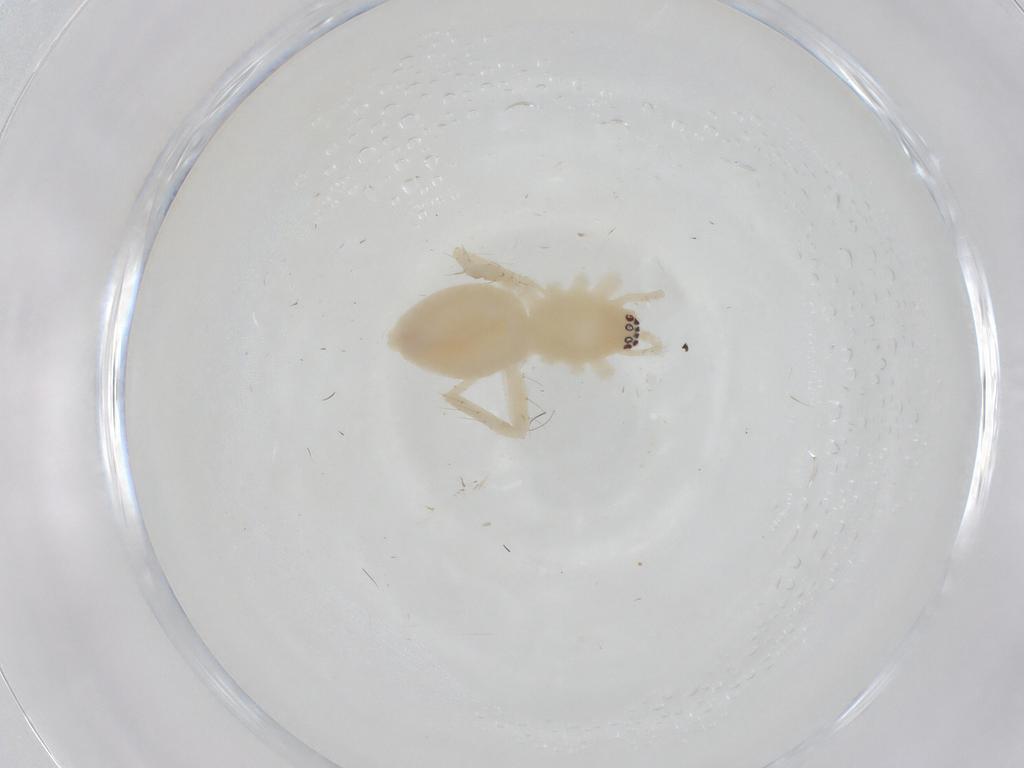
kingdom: Animalia
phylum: Arthropoda
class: Arachnida
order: Araneae
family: Anyphaenidae
